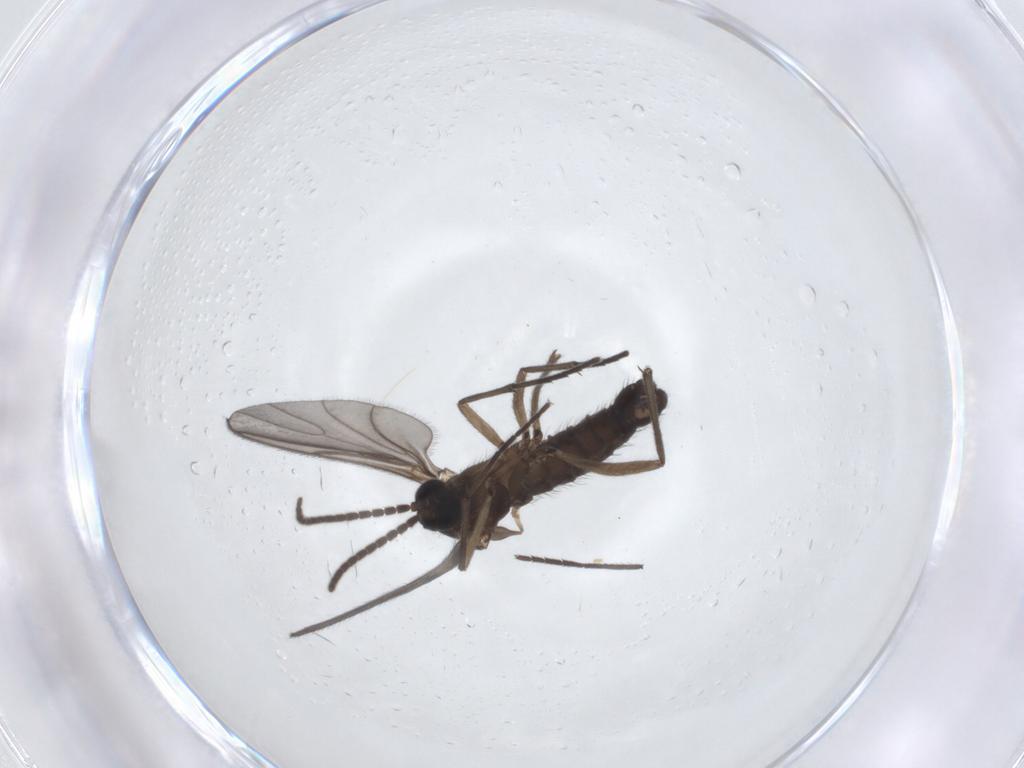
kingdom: Animalia
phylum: Arthropoda
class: Insecta
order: Diptera
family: Sciaridae
